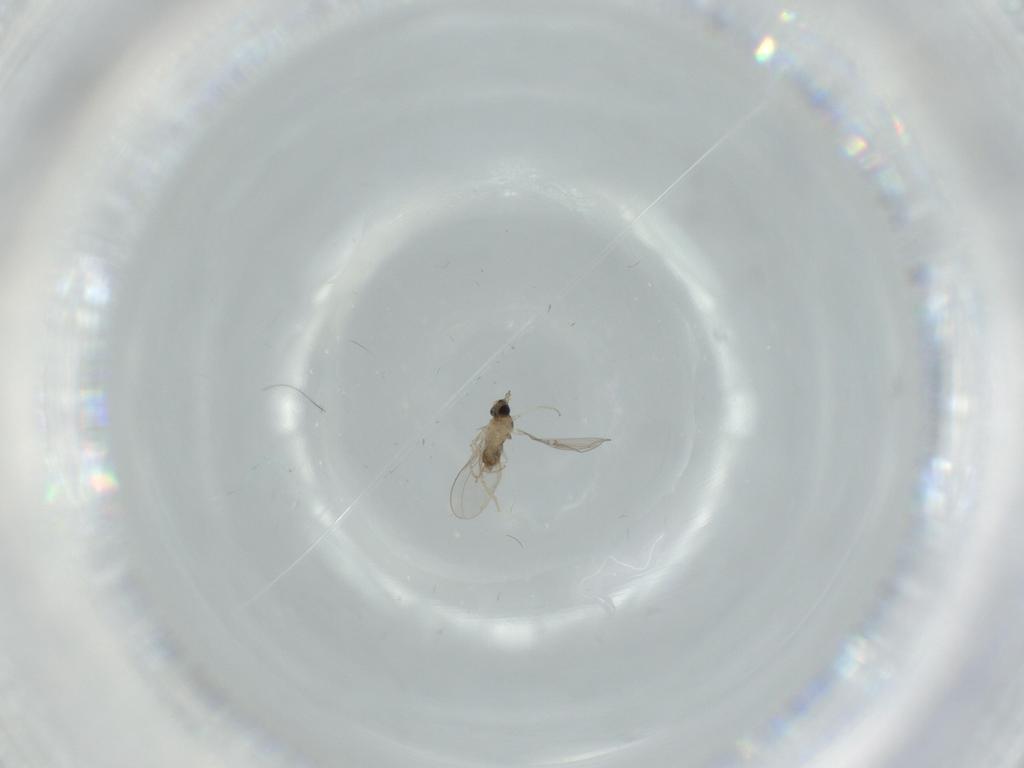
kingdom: Animalia
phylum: Arthropoda
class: Insecta
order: Diptera
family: Cecidomyiidae
